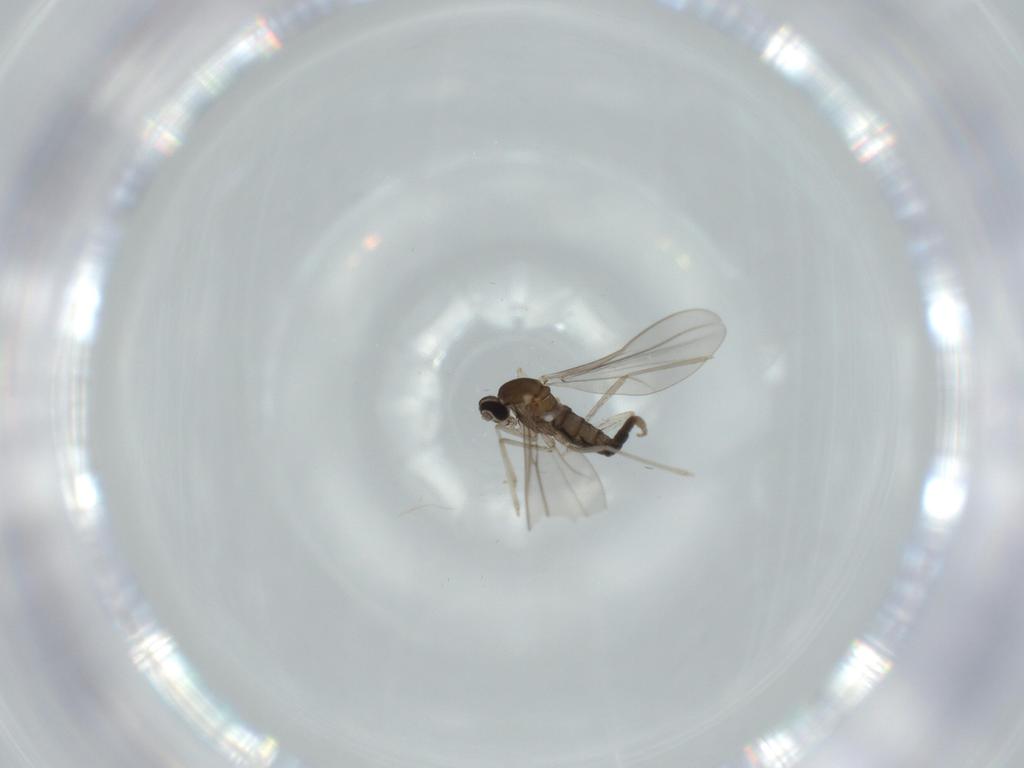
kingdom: Animalia
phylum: Arthropoda
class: Insecta
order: Diptera
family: Cecidomyiidae
